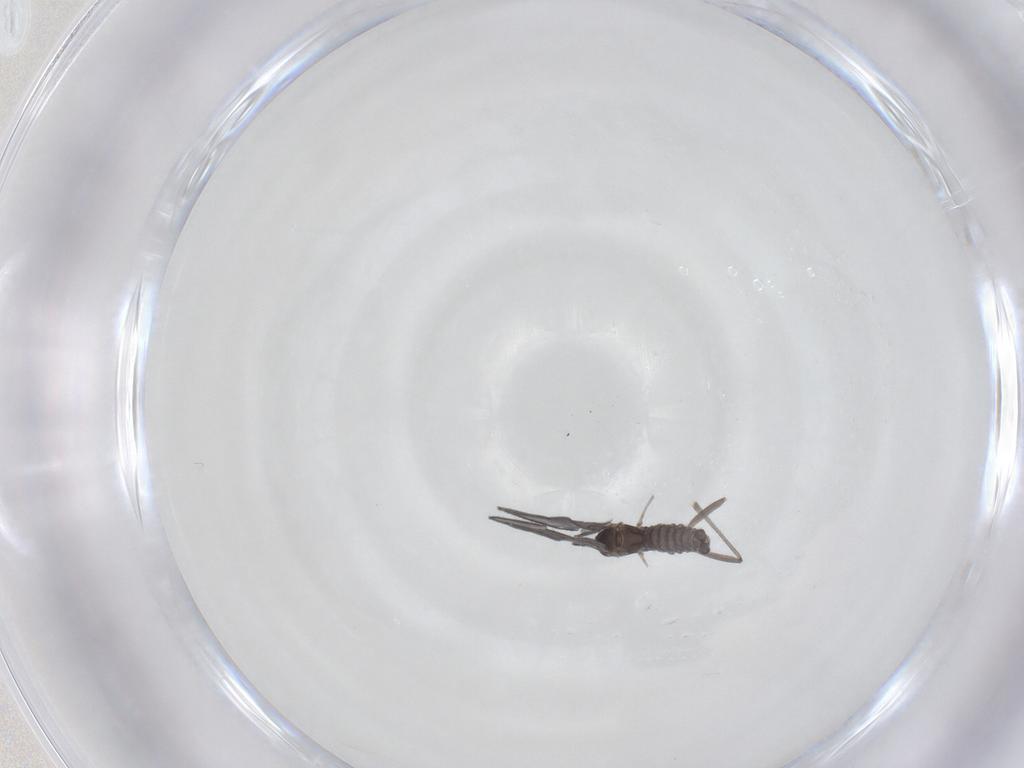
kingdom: Animalia
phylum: Arthropoda
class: Insecta
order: Diptera
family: Sciaridae
